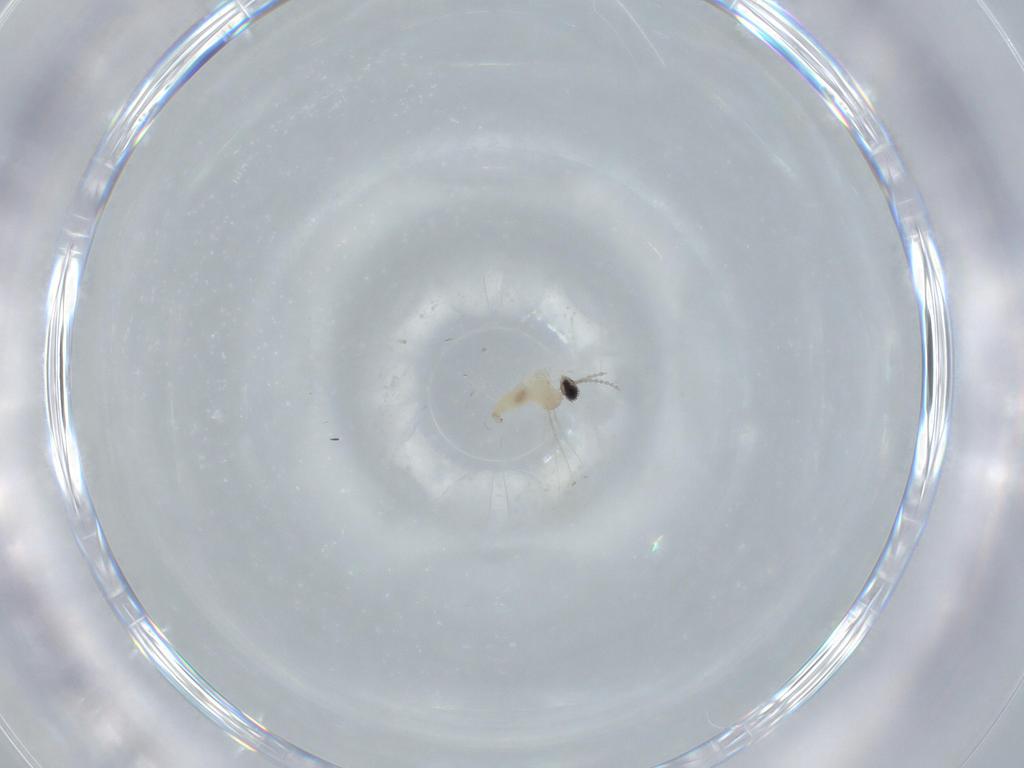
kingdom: Animalia
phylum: Arthropoda
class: Insecta
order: Diptera
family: Cecidomyiidae
